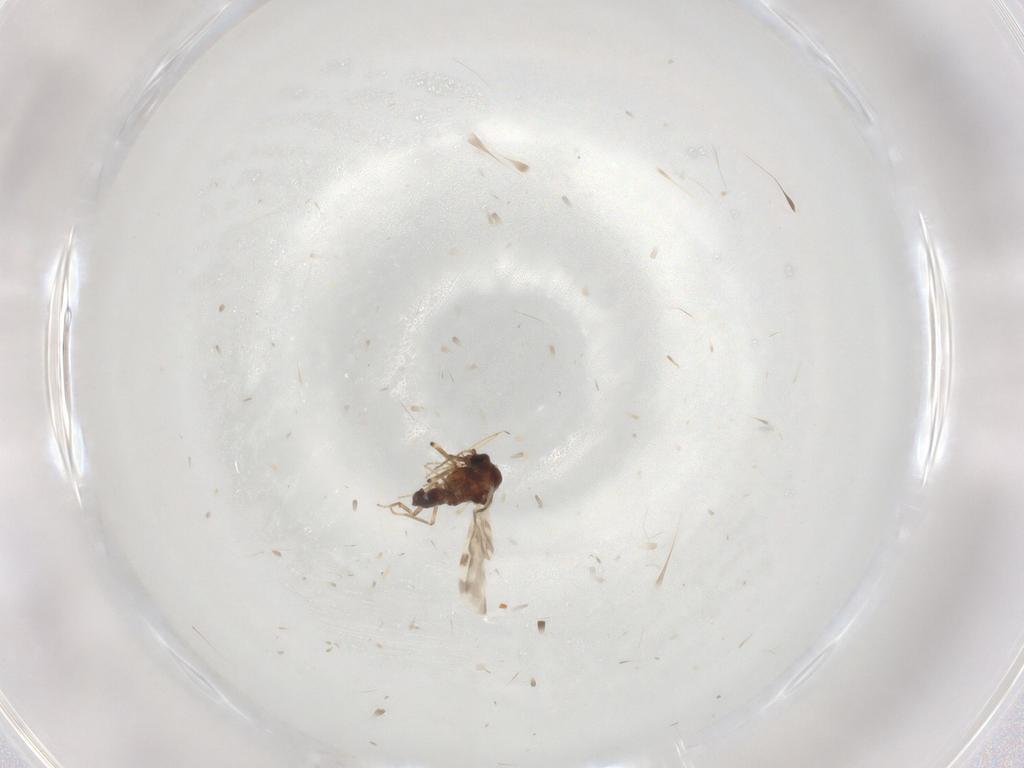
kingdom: Animalia
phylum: Arthropoda
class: Insecta
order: Diptera
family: Ceratopogonidae
